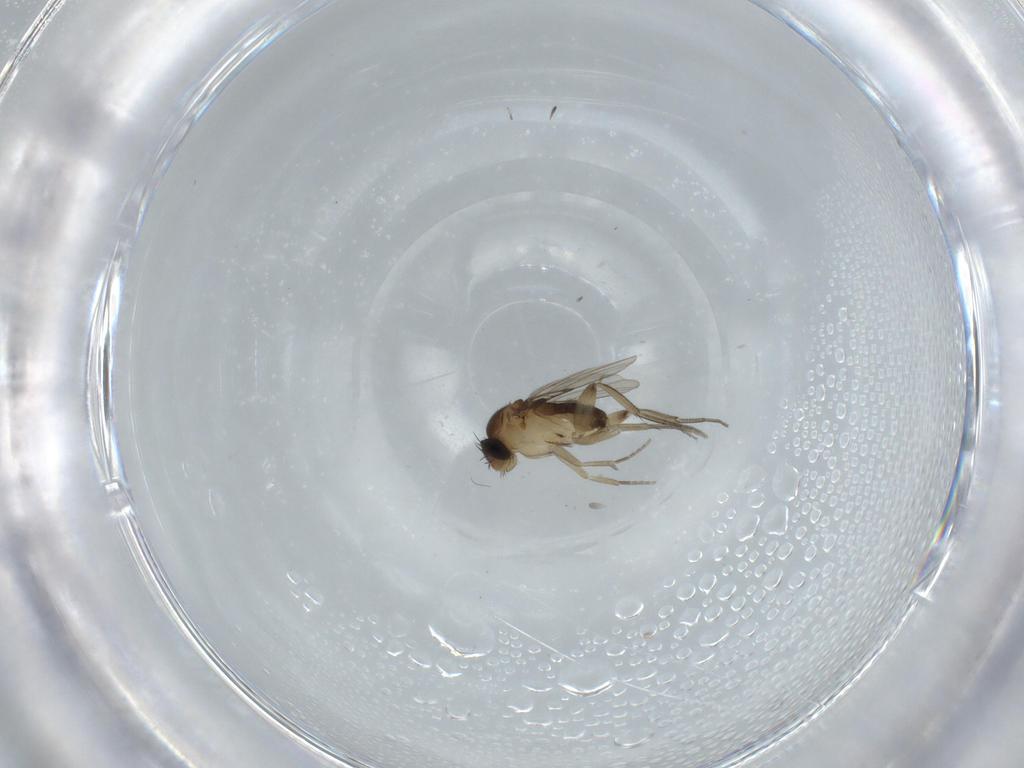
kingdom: Animalia
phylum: Arthropoda
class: Insecta
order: Diptera
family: Phoridae
